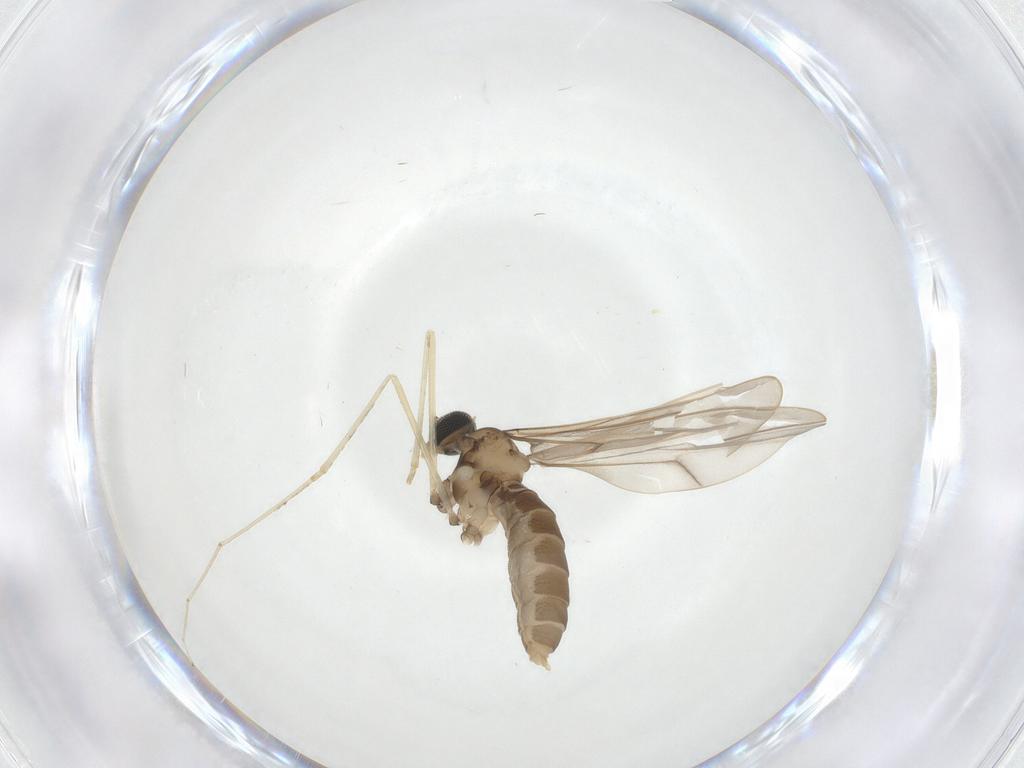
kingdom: Animalia
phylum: Arthropoda
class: Insecta
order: Diptera
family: Cecidomyiidae
